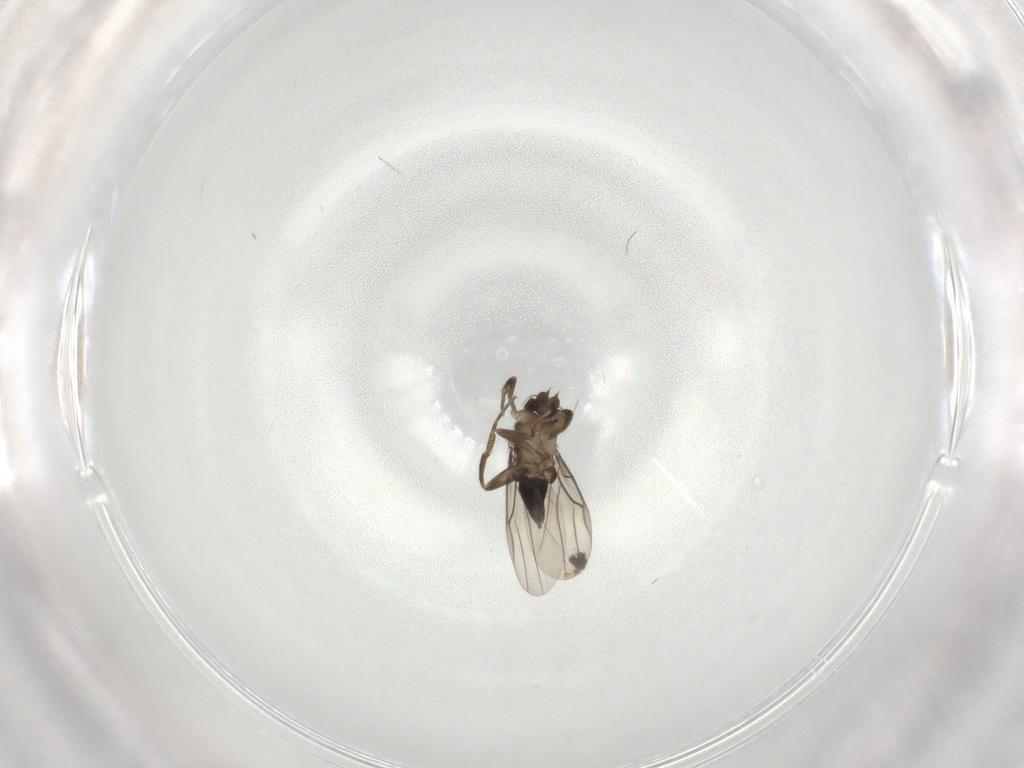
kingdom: Animalia
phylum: Arthropoda
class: Insecta
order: Diptera
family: Phoridae
